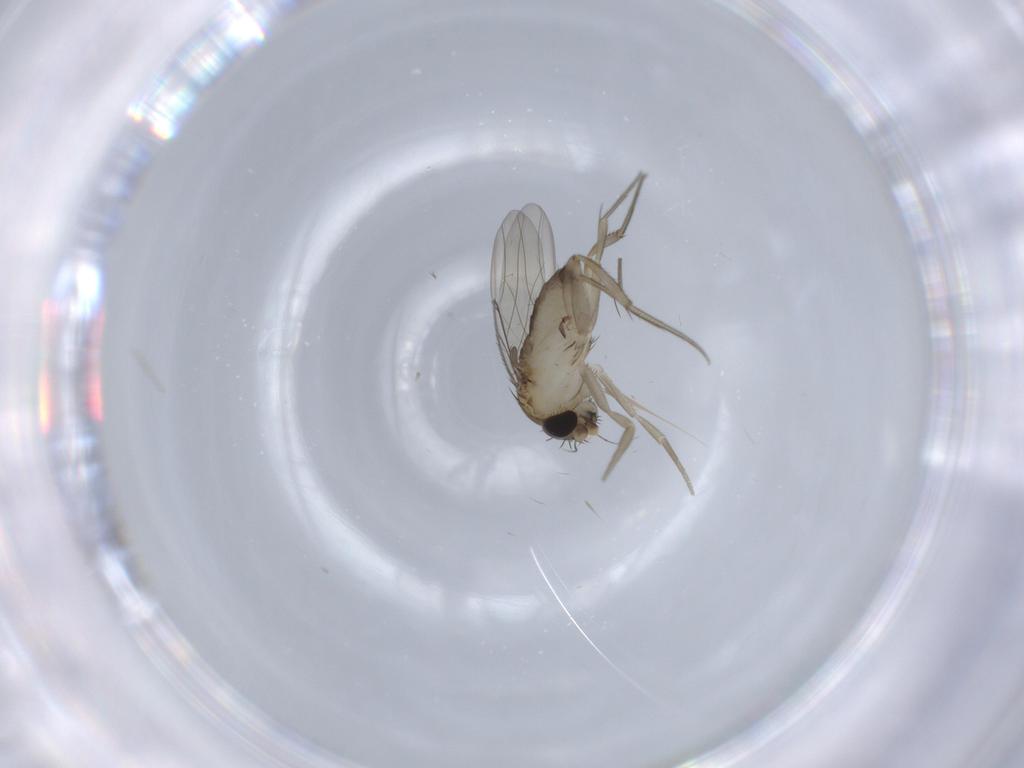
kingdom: Animalia
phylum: Arthropoda
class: Insecta
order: Diptera
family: Phoridae
